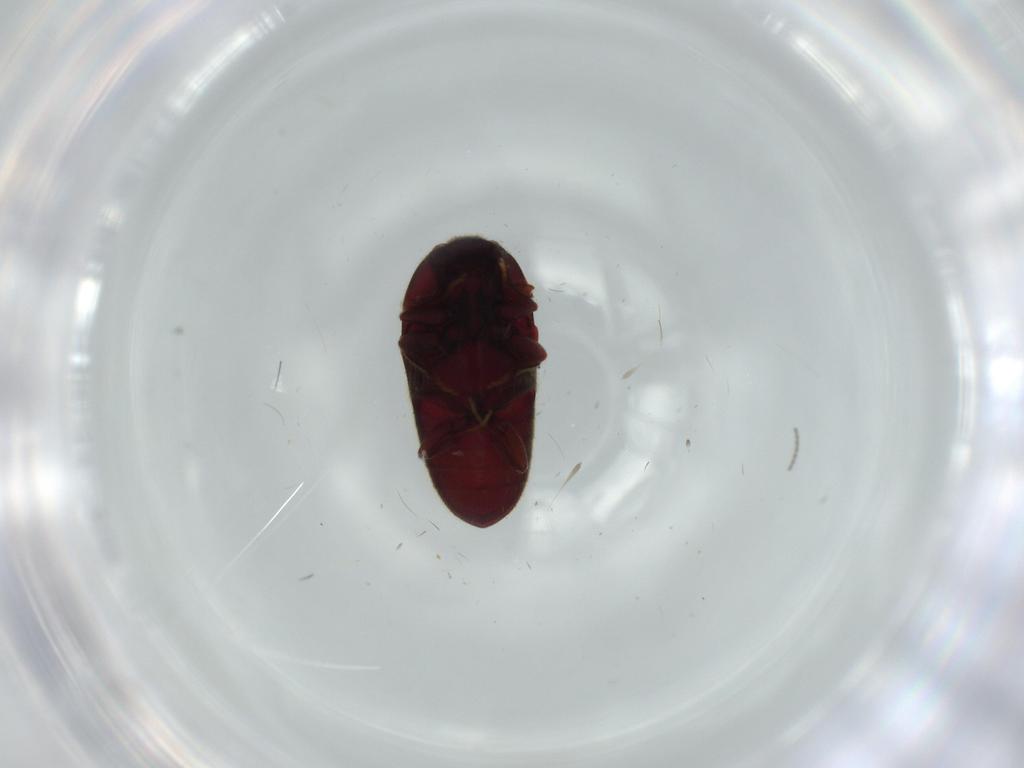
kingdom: Animalia
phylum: Arthropoda
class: Insecta
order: Coleoptera
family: Throscidae
